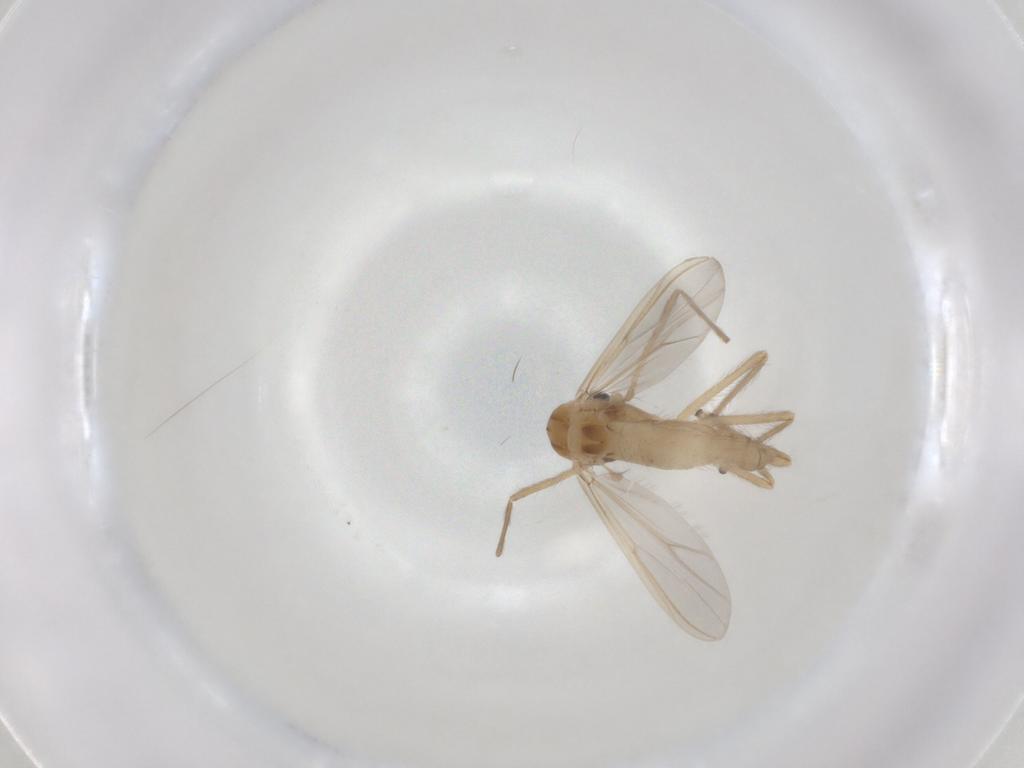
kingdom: Animalia
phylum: Arthropoda
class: Insecta
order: Diptera
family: Chironomidae
